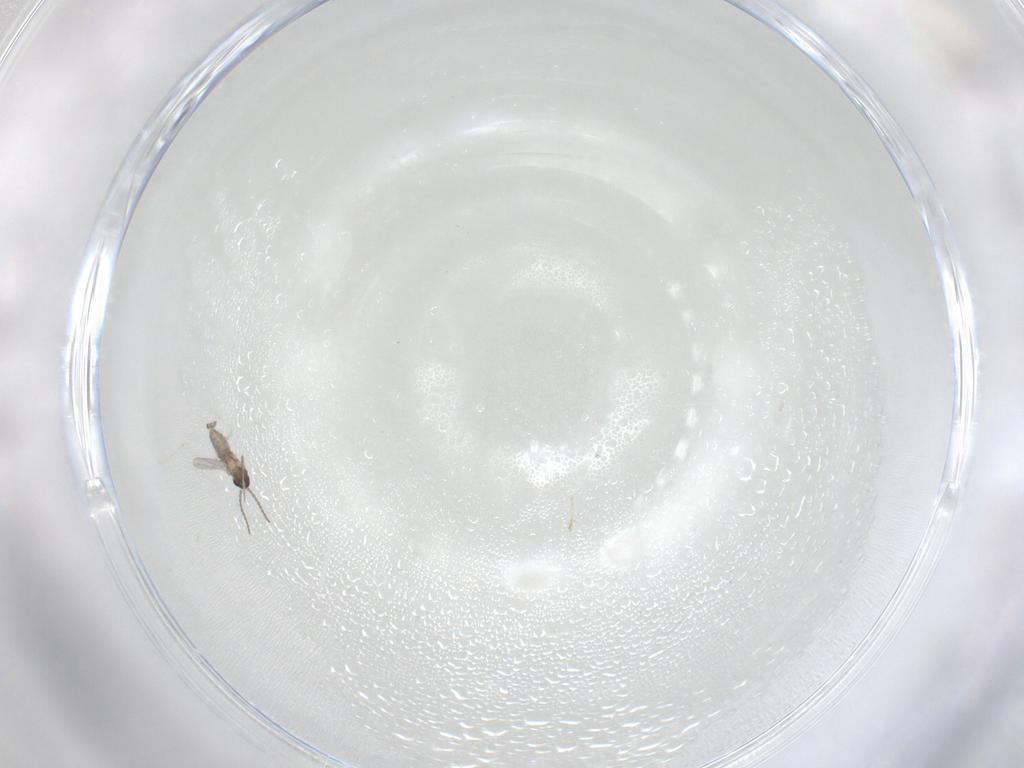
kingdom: Animalia
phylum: Arthropoda
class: Insecta
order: Diptera
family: Cecidomyiidae
